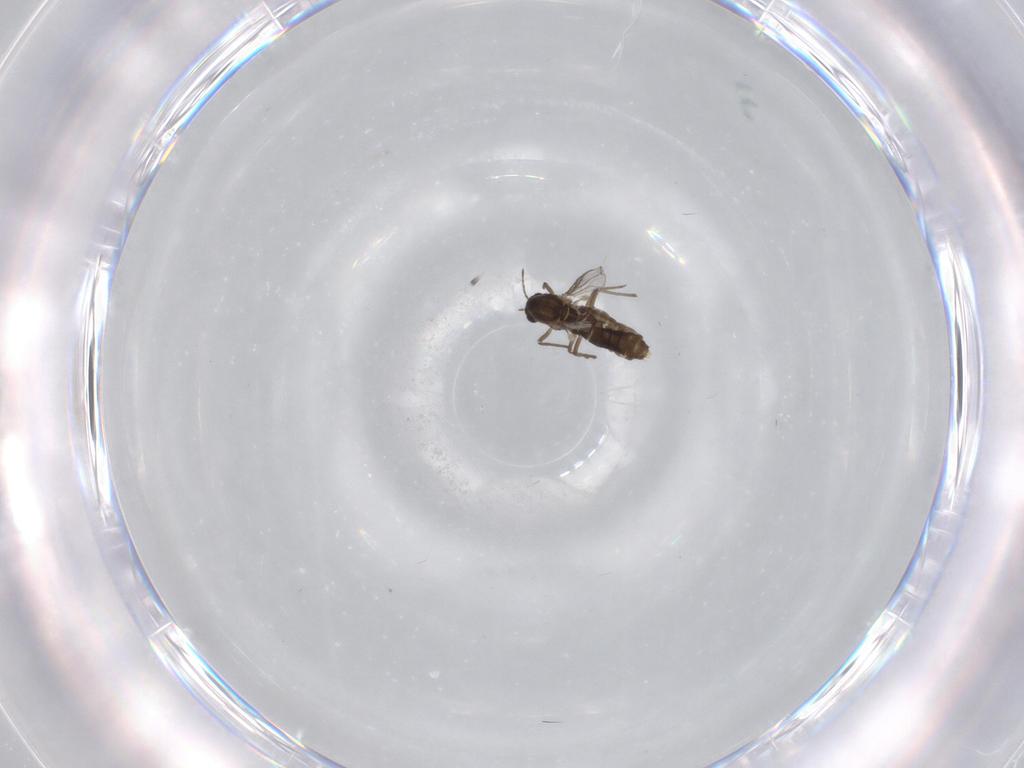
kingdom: Animalia
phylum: Arthropoda
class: Insecta
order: Diptera
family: Chironomidae
